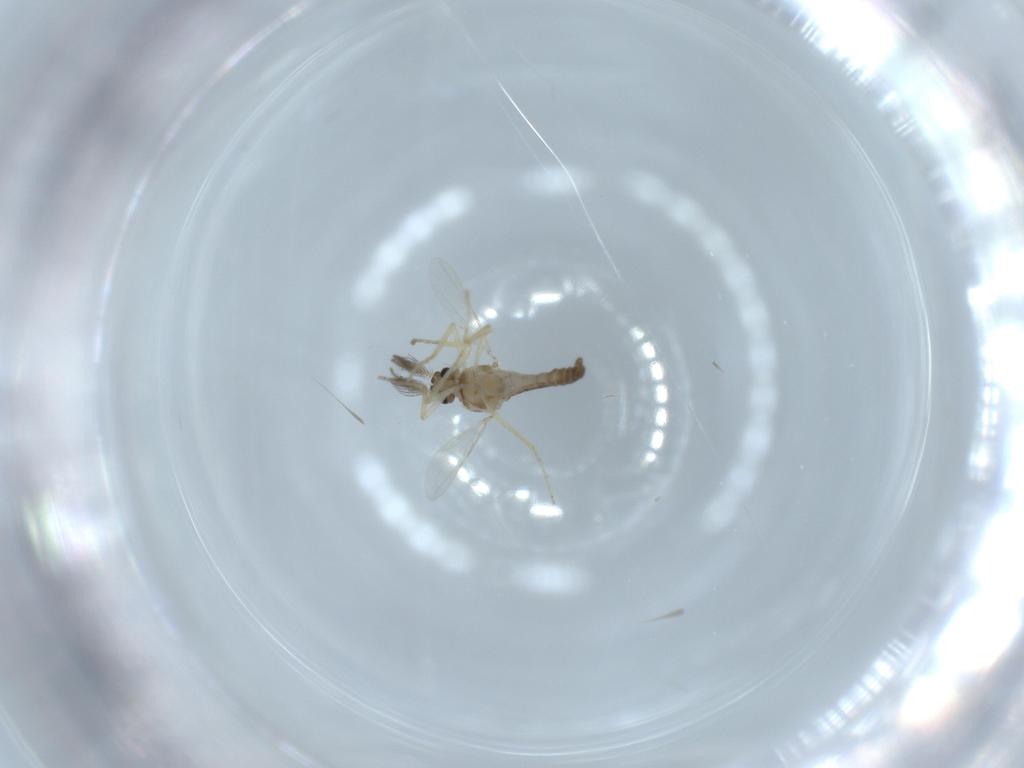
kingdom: Animalia
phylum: Arthropoda
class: Insecta
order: Diptera
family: Ceratopogonidae
